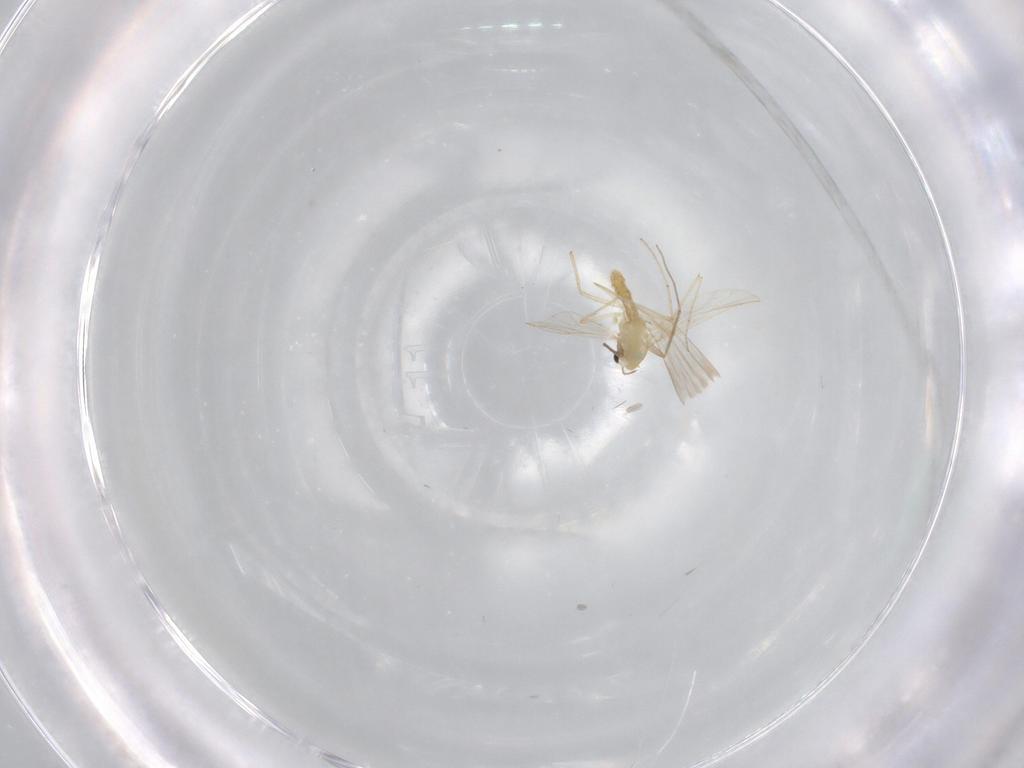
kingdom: Animalia
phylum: Arthropoda
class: Insecta
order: Diptera
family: Sciaridae
